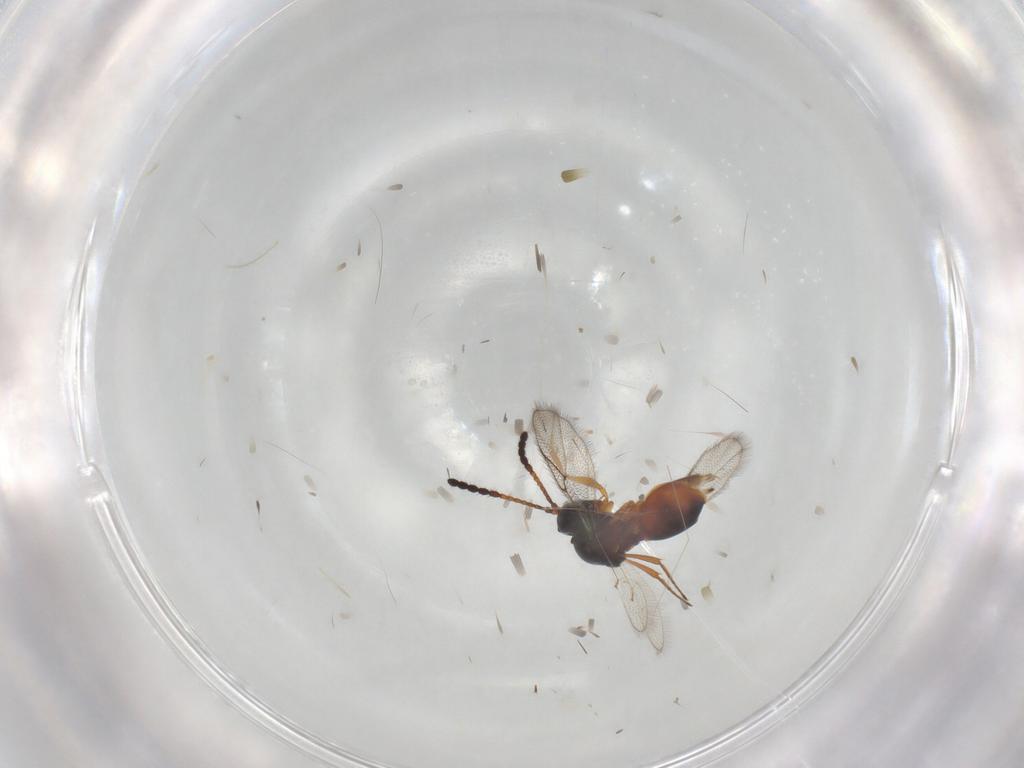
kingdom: Animalia
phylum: Arthropoda
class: Insecta
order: Hymenoptera
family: Figitidae
